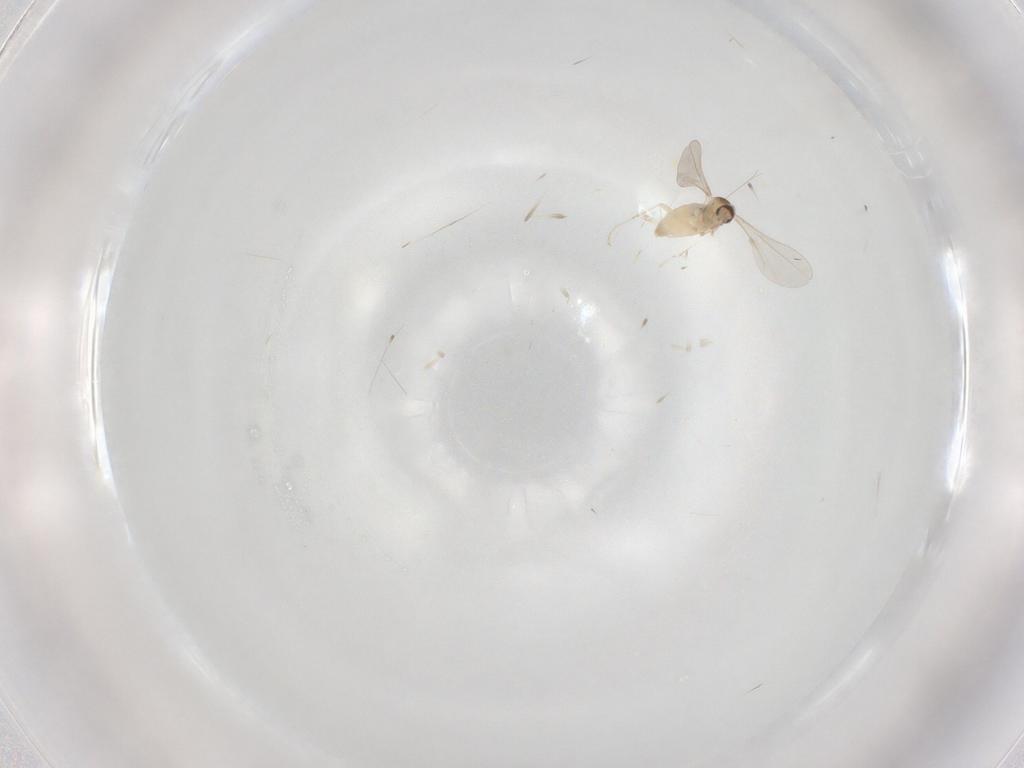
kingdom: Animalia
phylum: Arthropoda
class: Insecta
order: Diptera
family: Cecidomyiidae
